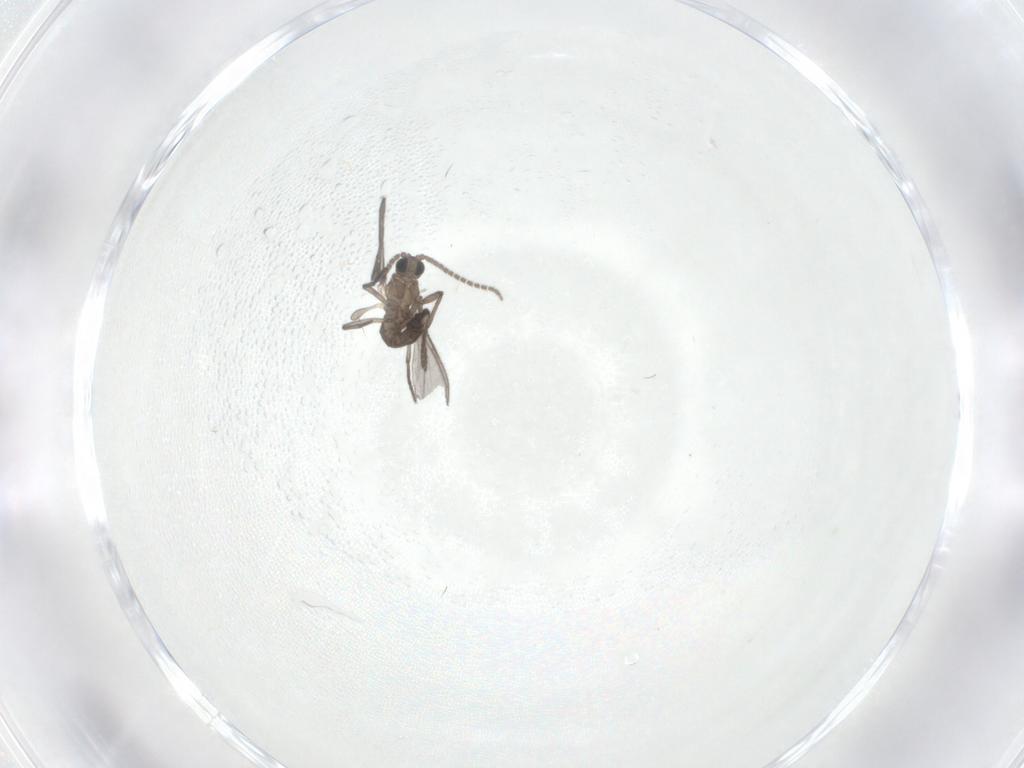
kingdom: Animalia
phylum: Arthropoda
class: Insecta
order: Diptera
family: Sciaridae
